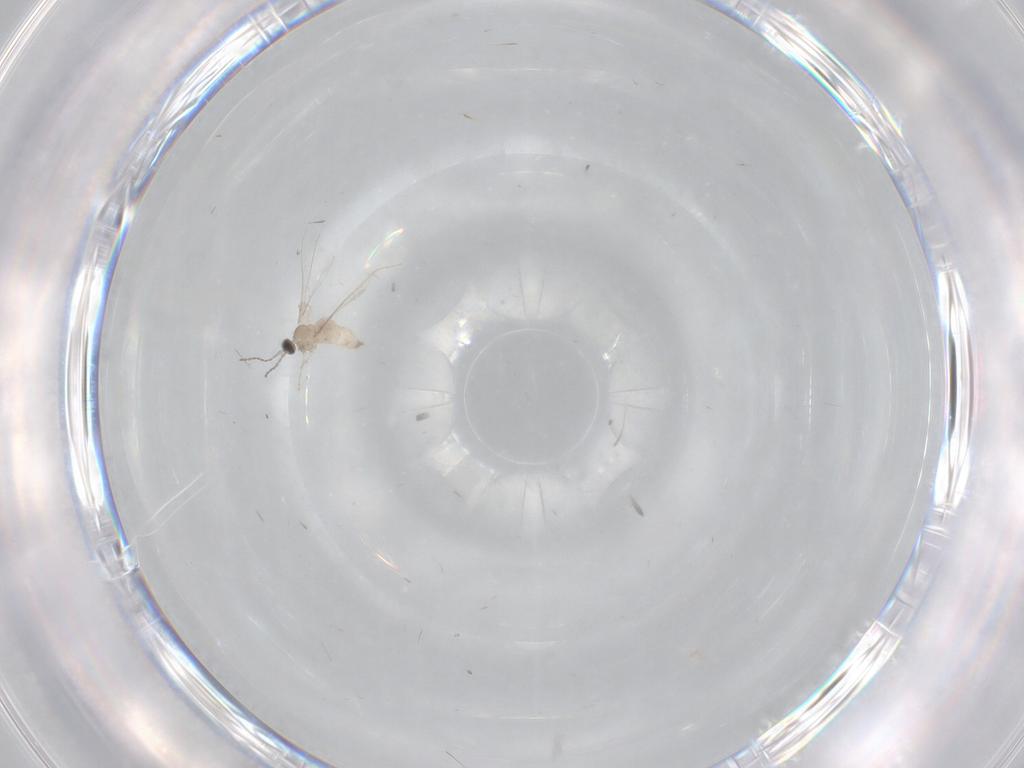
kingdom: Animalia
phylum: Arthropoda
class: Insecta
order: Diptera
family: Cecidomyiidae
